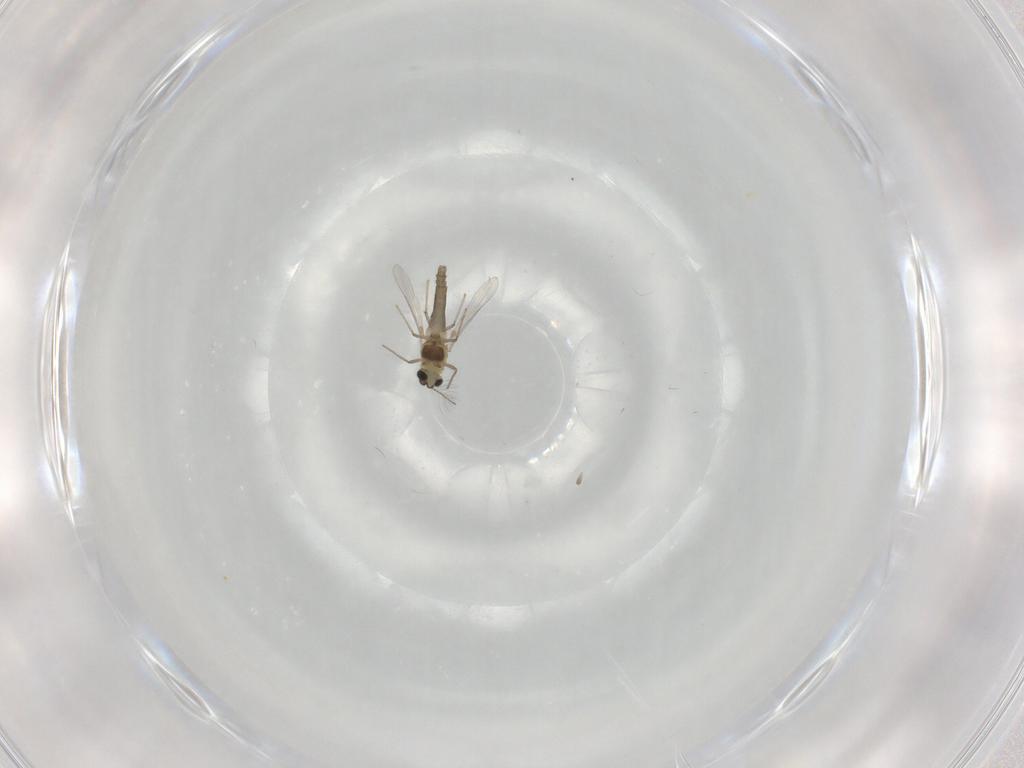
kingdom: Animalia
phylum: Arthropoda
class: Insecta
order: Diptera
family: Chironomidae
